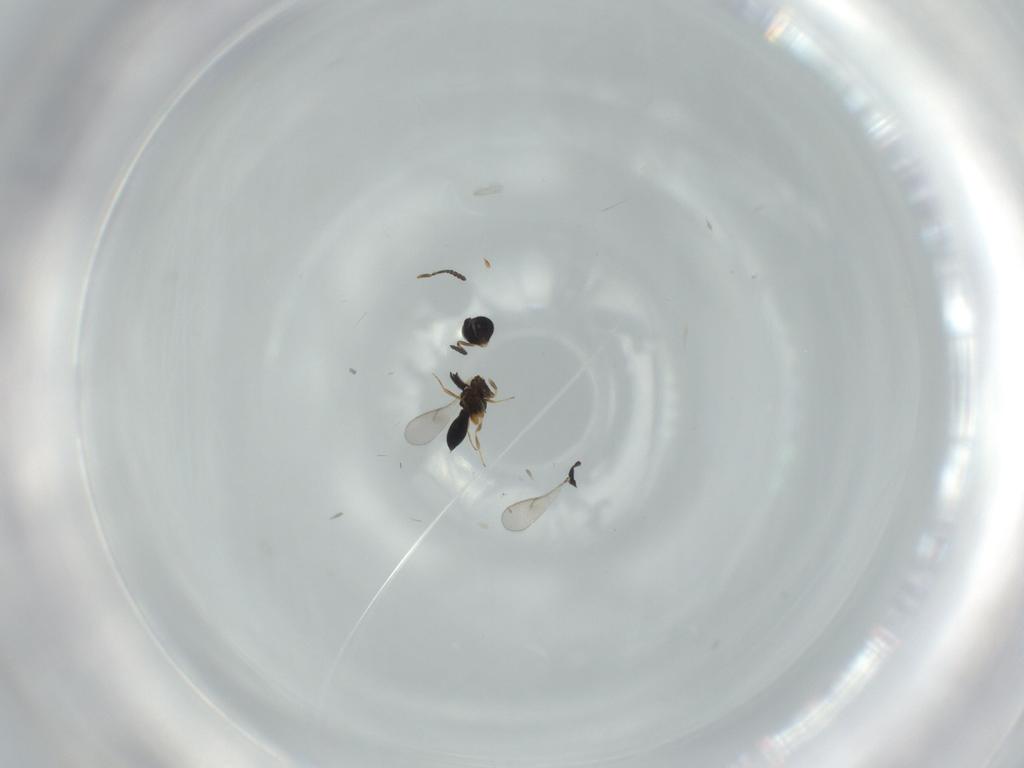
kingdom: Animalia
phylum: Arthropoda
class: Insecta
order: Hymenoptera
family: Scelionidae
